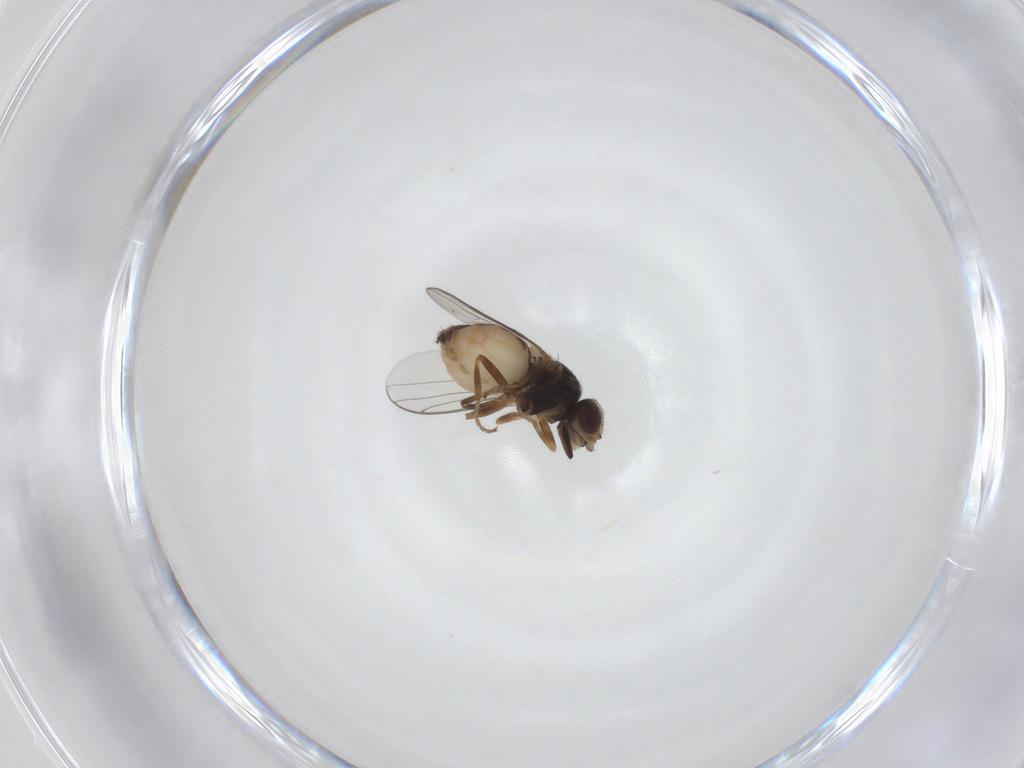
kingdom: Animalia
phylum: Arthropoda
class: Insecta
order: Diptera
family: Chloropidae
